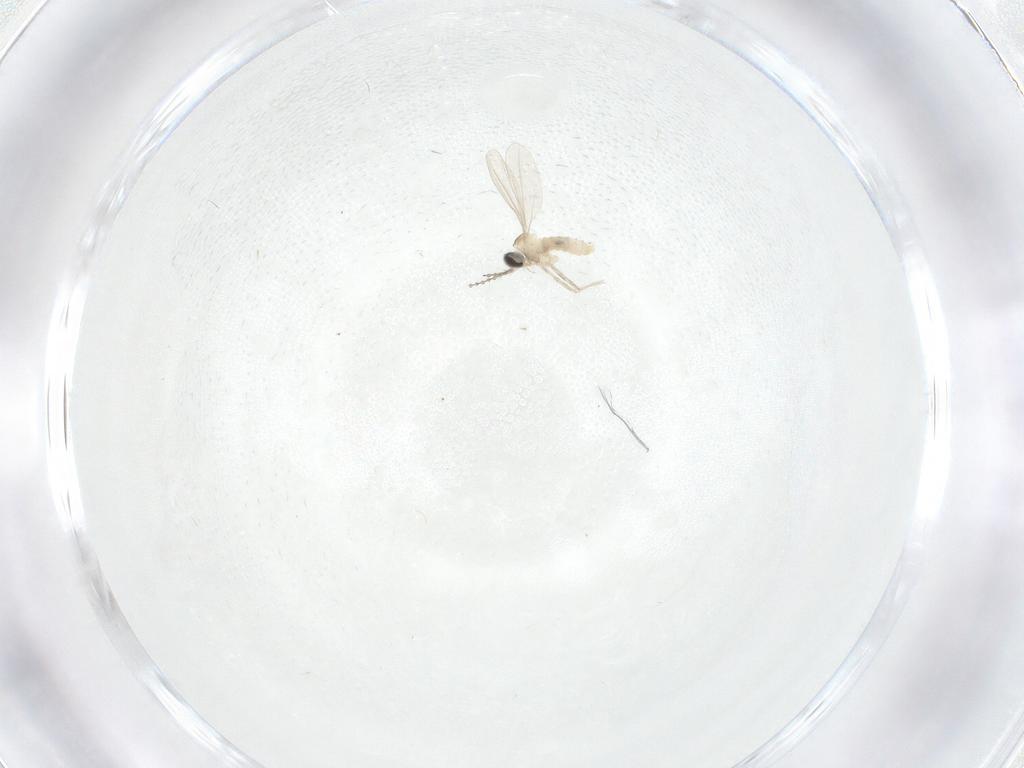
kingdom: Animalia
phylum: Arthropoda
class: Insecta
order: Diptera
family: Cecidomyiidae
